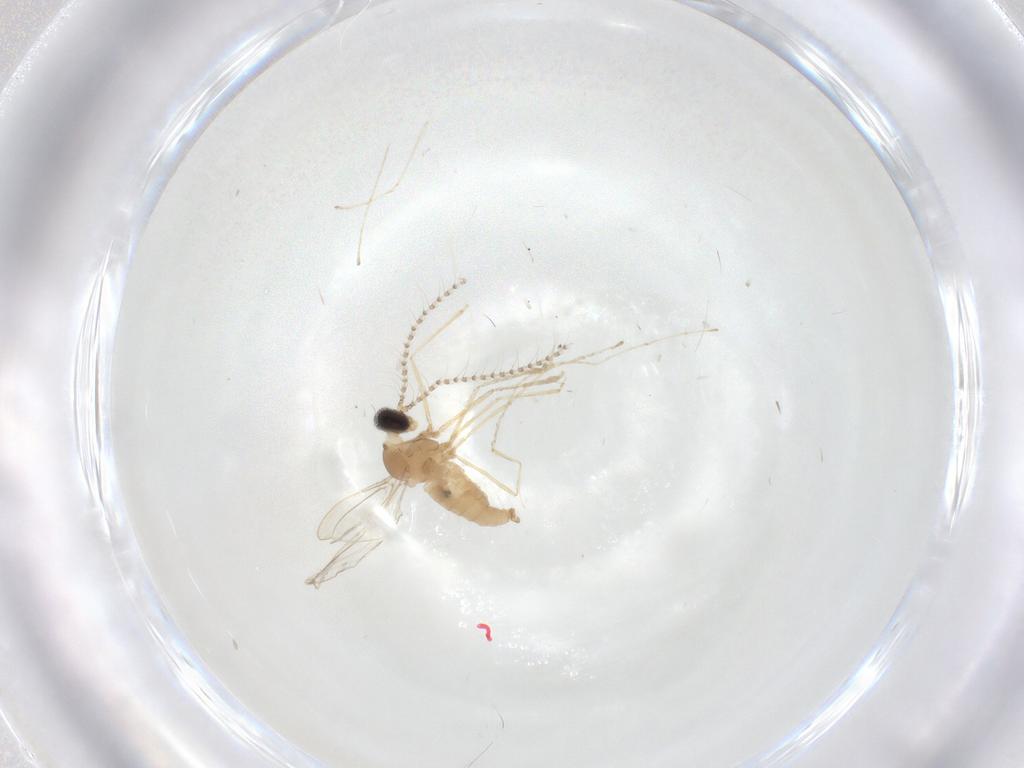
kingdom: Animalia
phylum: Arthropoda
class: Insecta
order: Diptera
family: Cecidomyiidae
